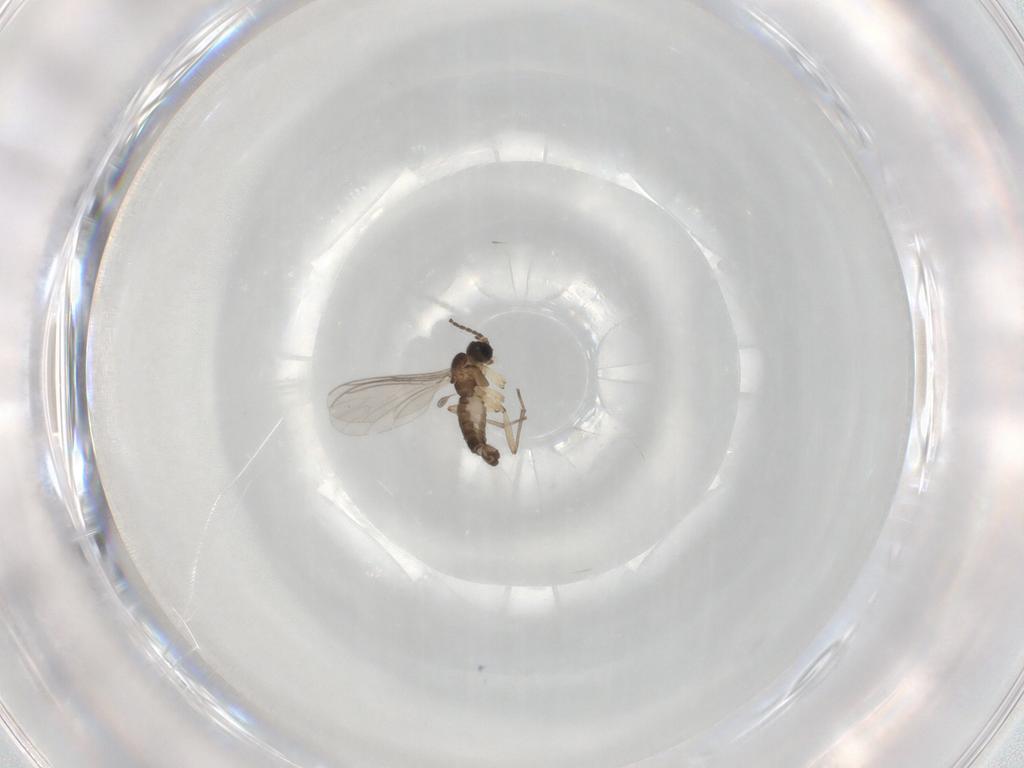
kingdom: Animalia
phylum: Arthropoda
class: Insecta
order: Diptera
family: Sciaridae
